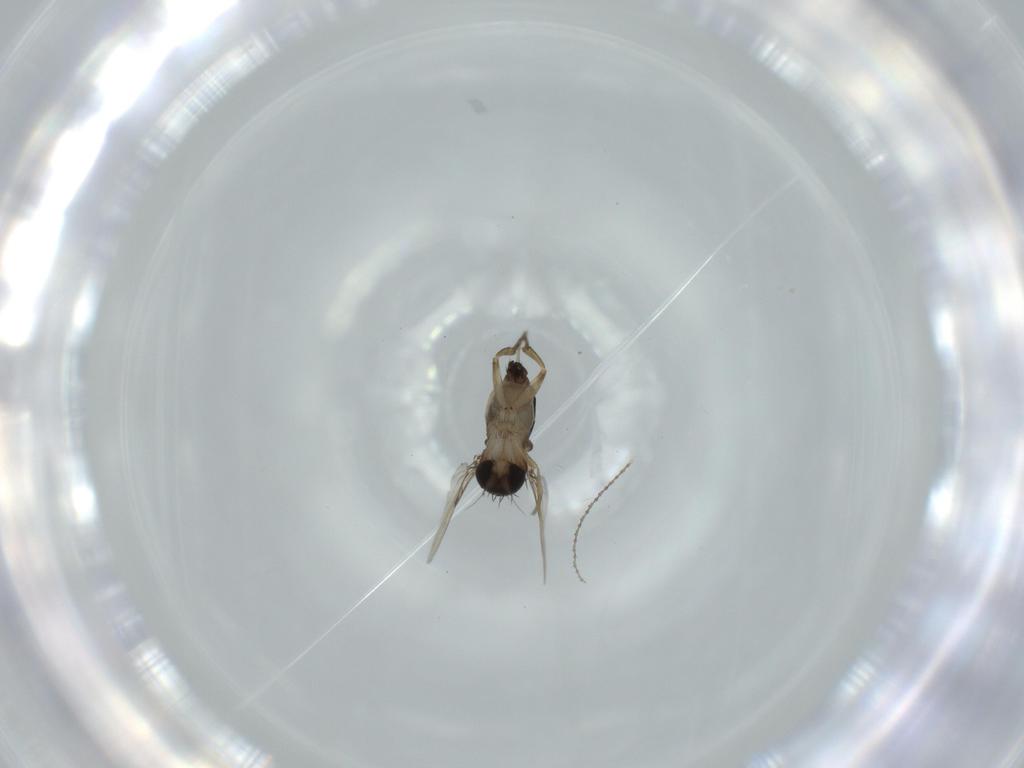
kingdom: Animalia
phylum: Arthropoda
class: Insecta
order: Diptera
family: Phoridae
